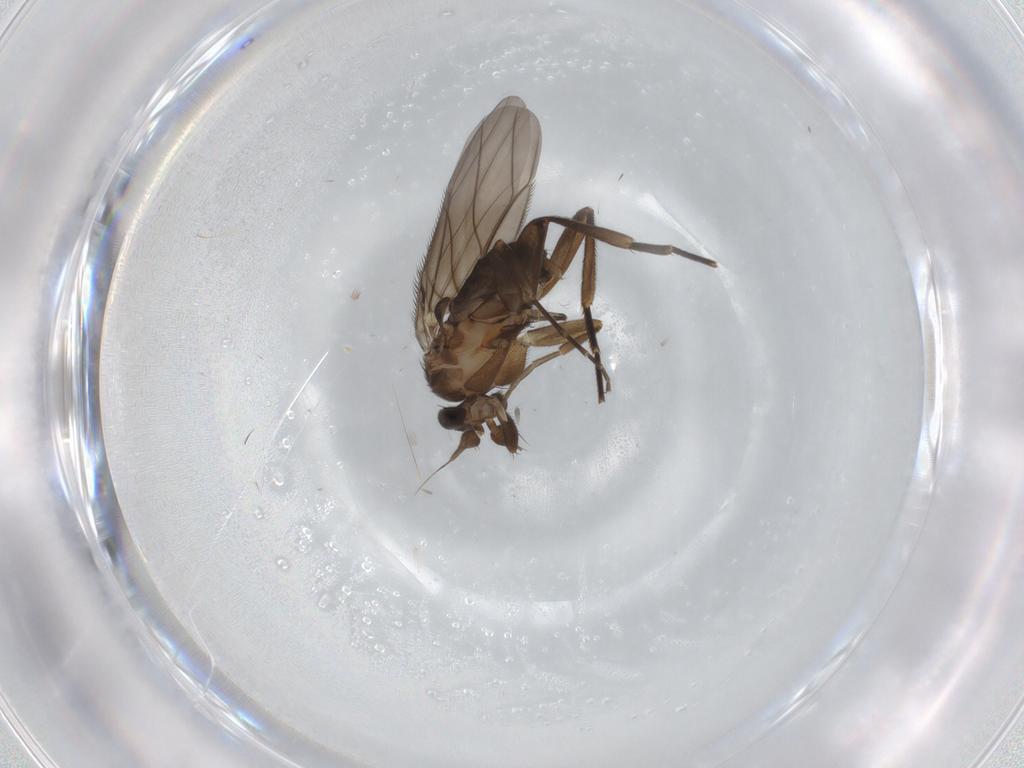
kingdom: Animalia
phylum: Arthropoda
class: Insecta
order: Diptera
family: Phoridae
